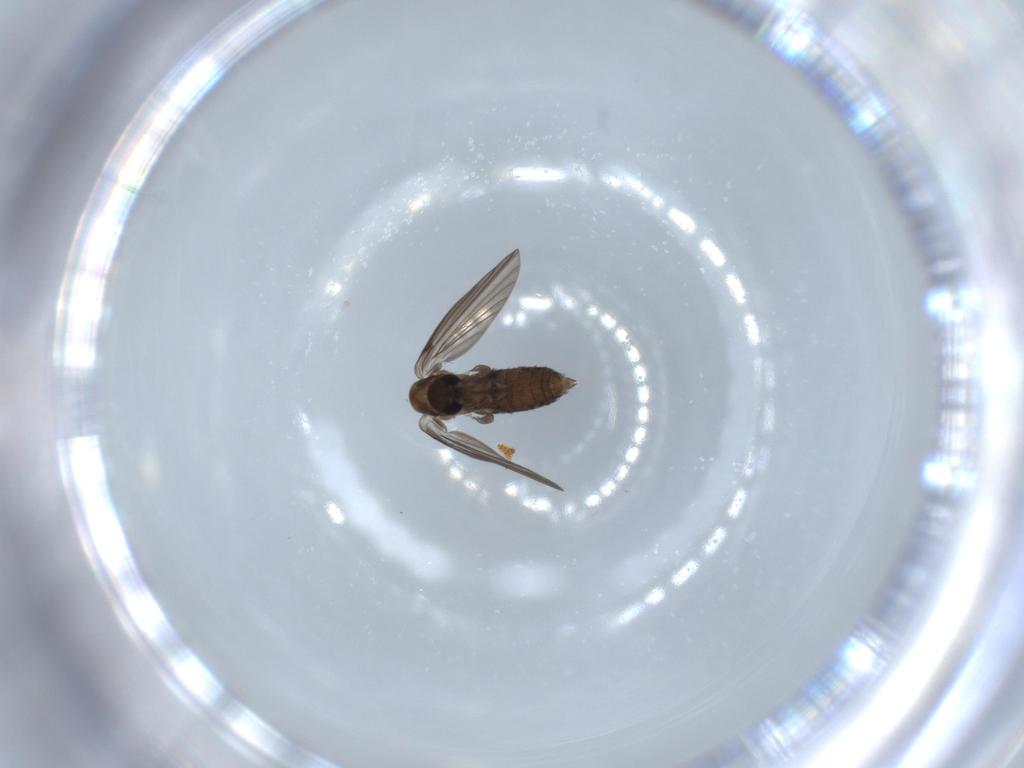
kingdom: Animalia
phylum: Arthropoda
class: Insecta
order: Diptera
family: Psychodidae
